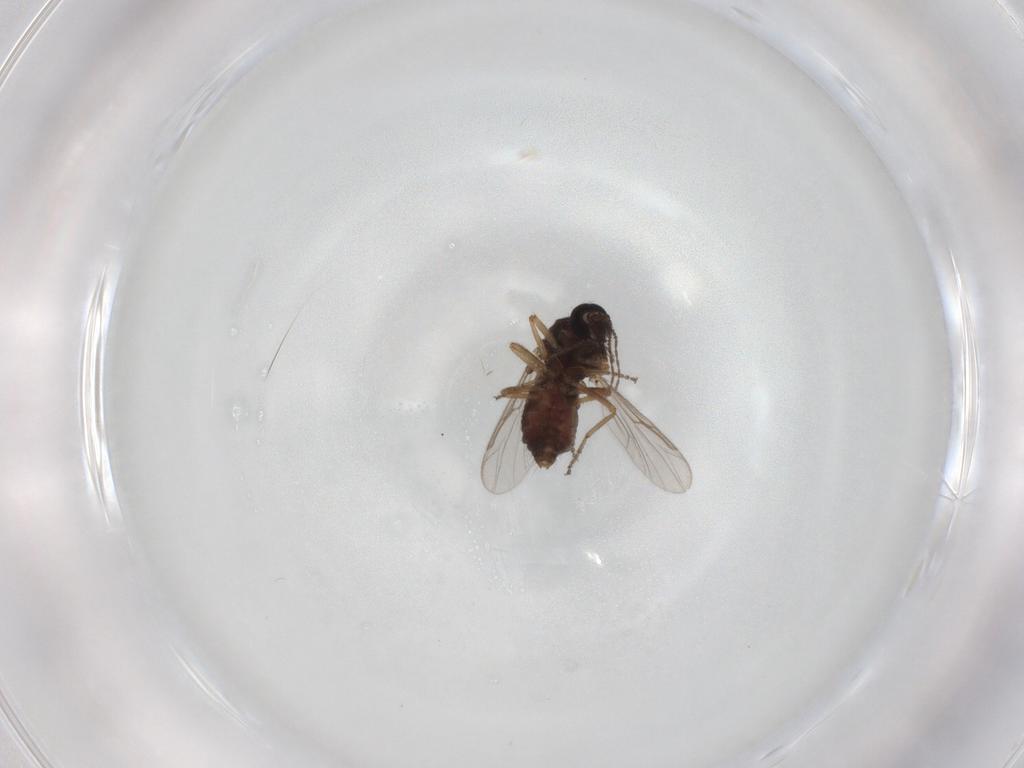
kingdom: Animalia
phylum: Arthropoda
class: Insecta
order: Diptera
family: Ceratopogonidae
